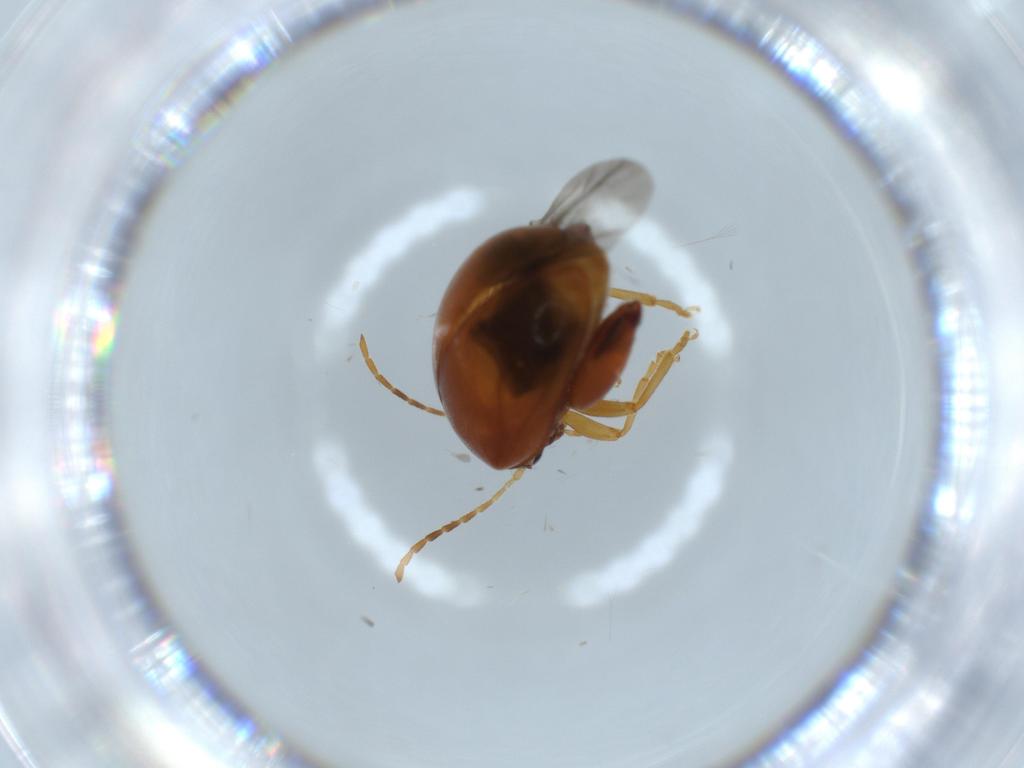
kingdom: Animalia
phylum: Arthropoda
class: Insecta
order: Coleoptera
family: Chrysomelidae
